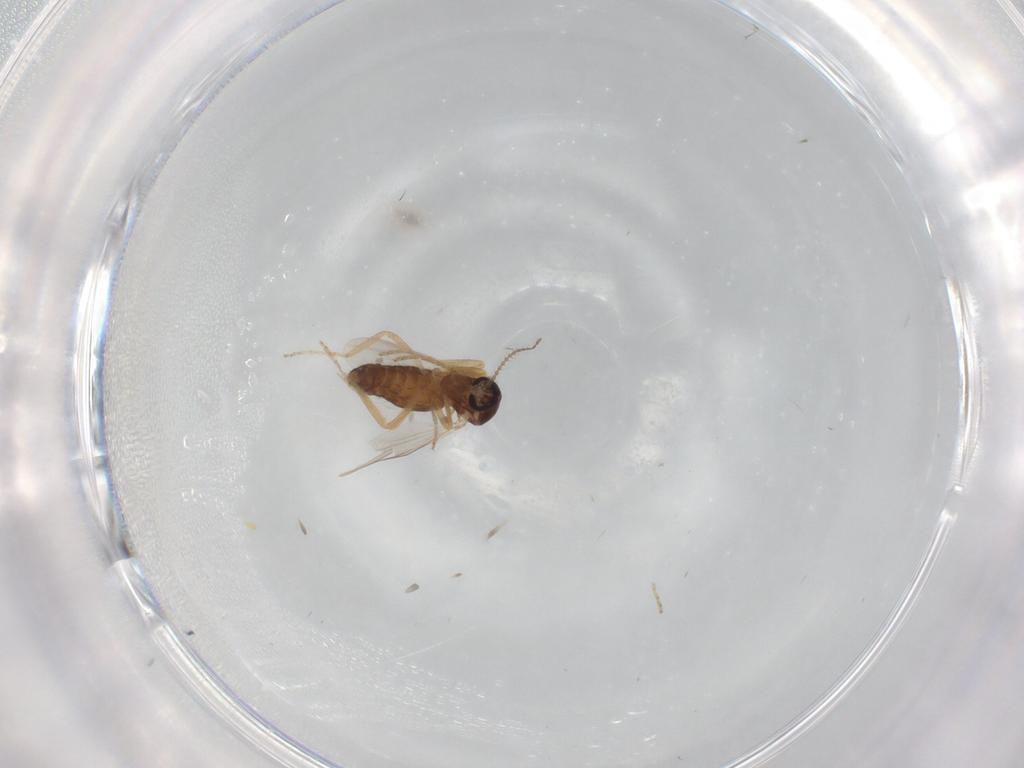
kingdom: Animalia
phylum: Arthropoda
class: Insecta
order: Diptera
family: Ceratopogonidae
